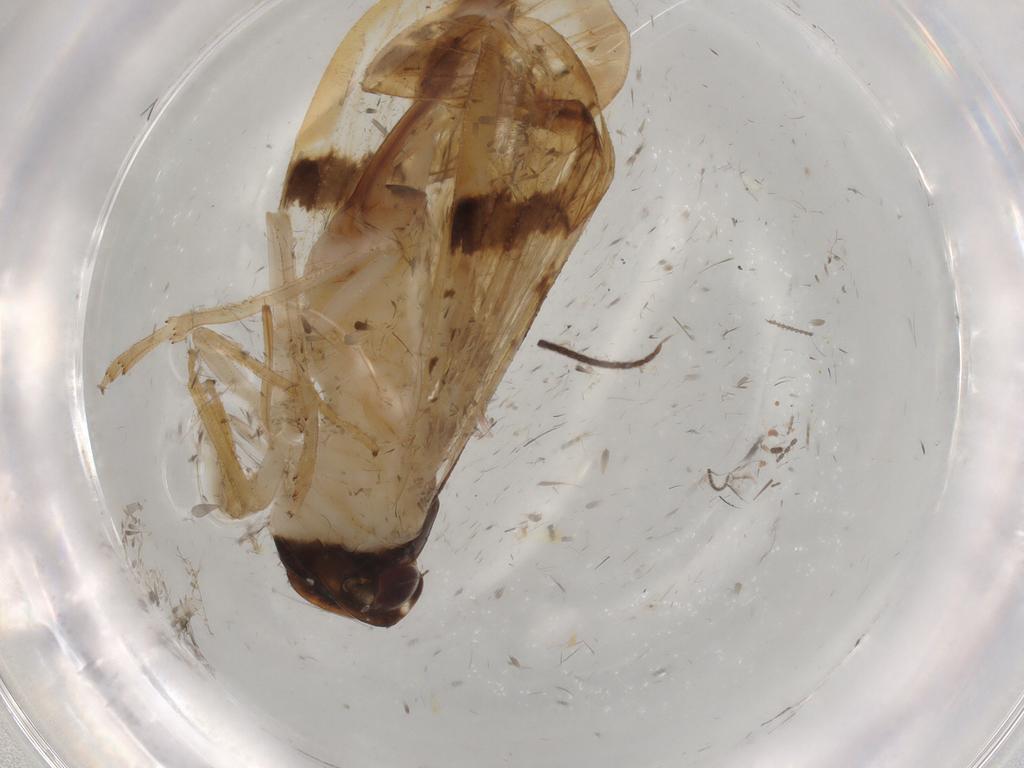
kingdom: Animalia
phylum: Arthropoda
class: Insecta
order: Hemiptera
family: Cixiidae
